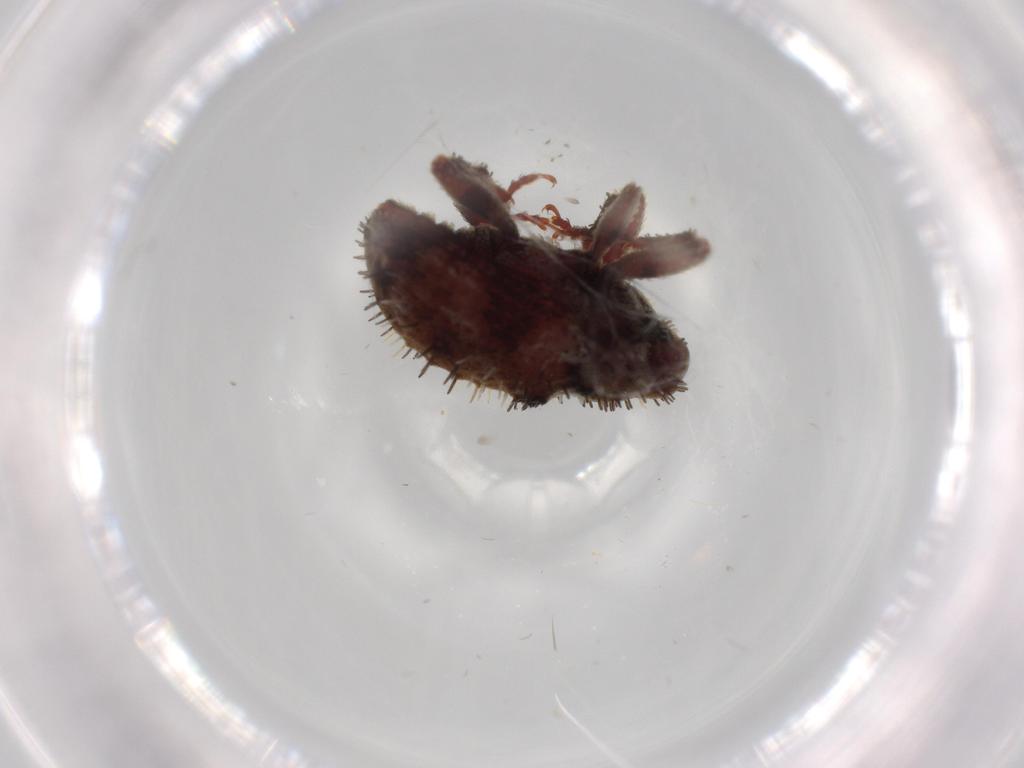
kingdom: Animalia
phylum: Arthropoda
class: Insecta
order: Coleoptera
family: Curculionidae
